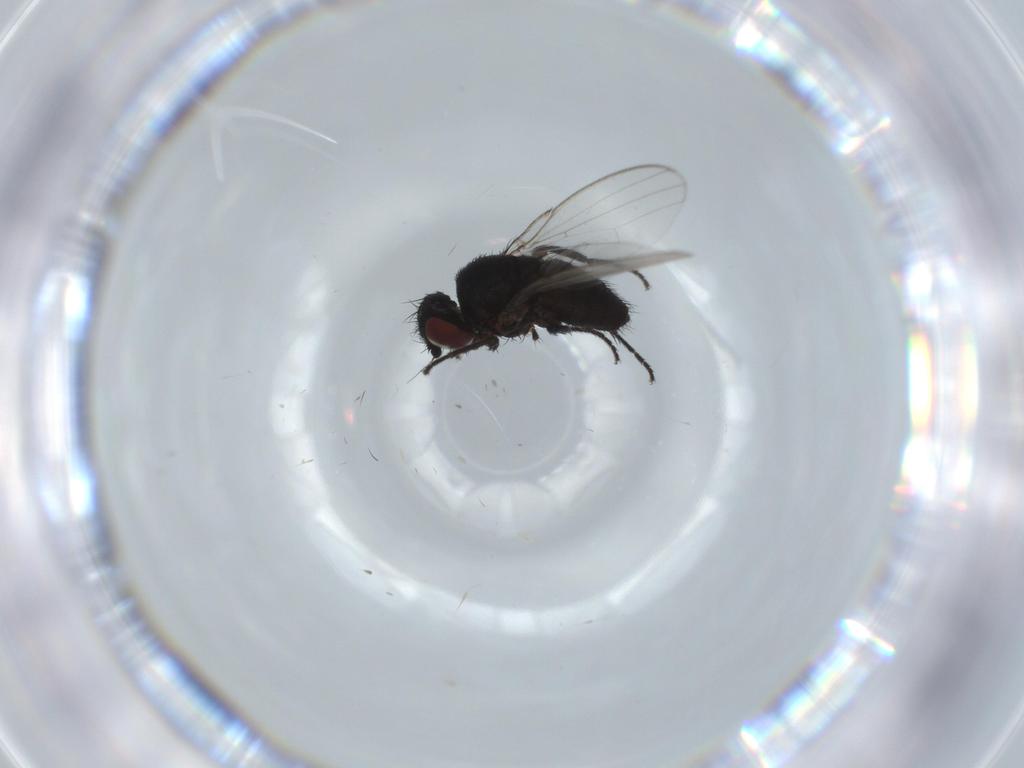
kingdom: Animalia
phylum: Arthropoda
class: Insecta
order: Diptera
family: Milichiidae
